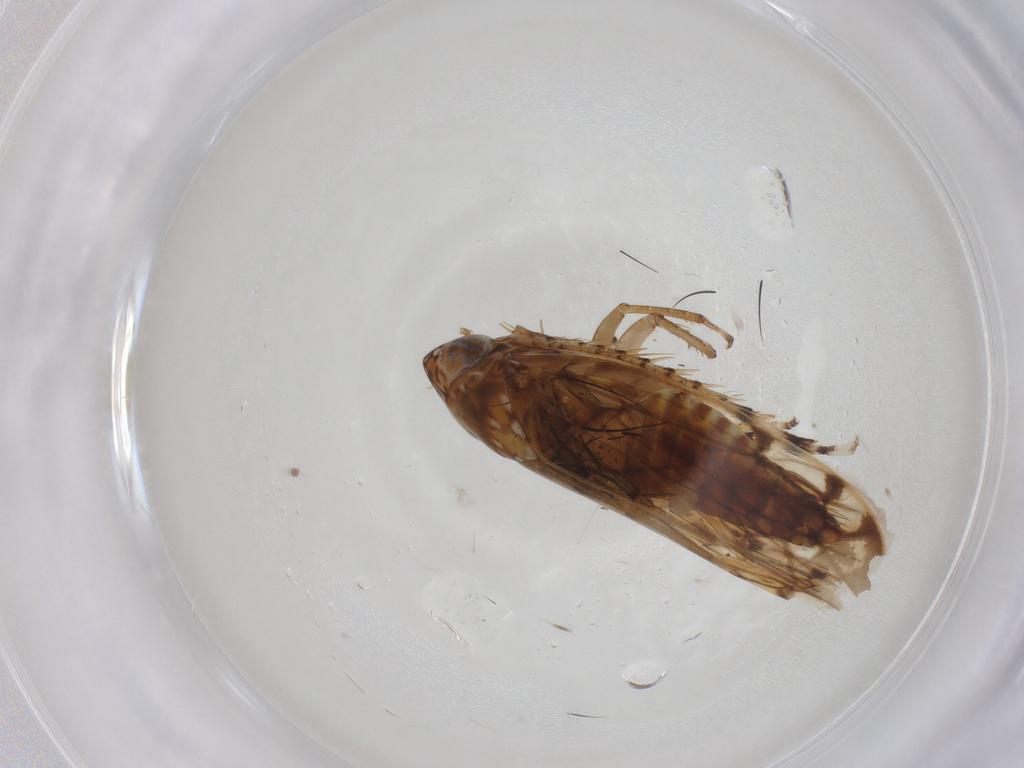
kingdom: Animalia
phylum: Arthropoda
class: Insecta
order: Hemiptera
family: Cicadellidae
